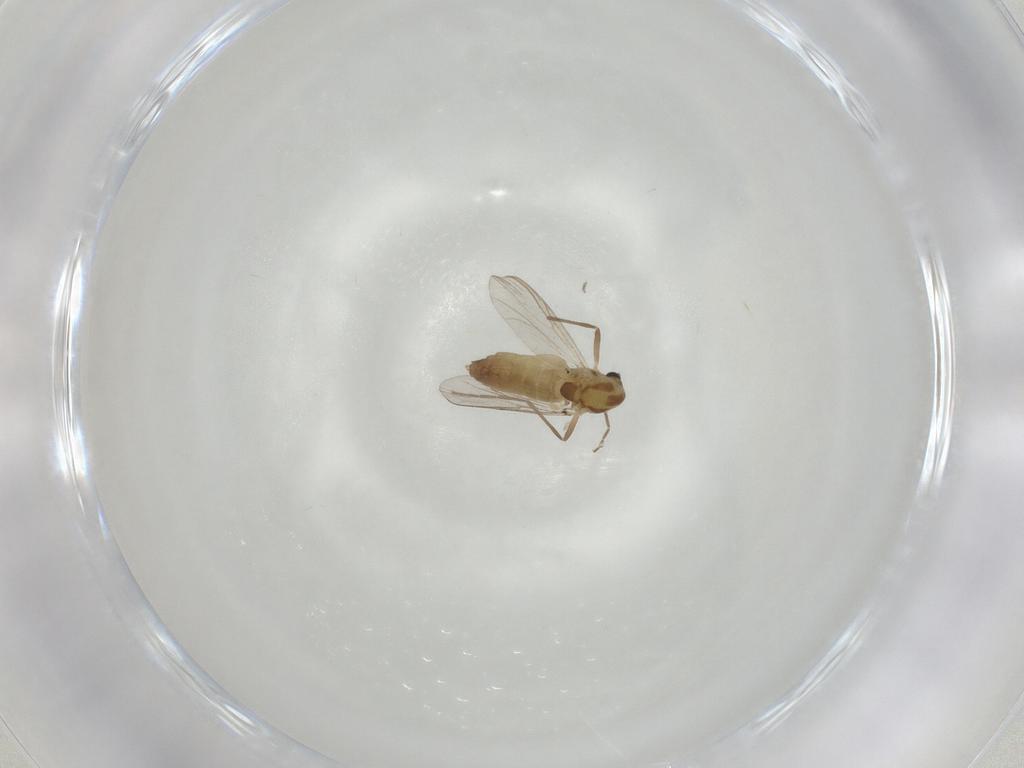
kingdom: Animalia
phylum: Arthropoda
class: Insecta
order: Diptera
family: Chironomidae
